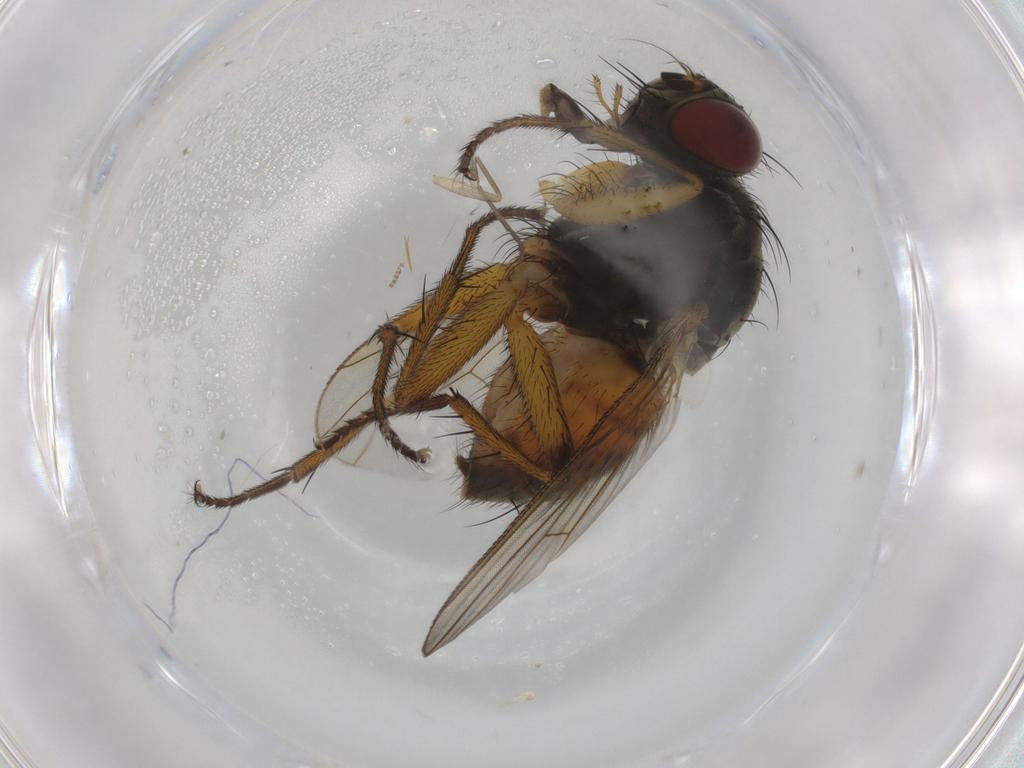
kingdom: Animalia
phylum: Arthropoda
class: Insecta
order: Diptera
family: Muscidae
